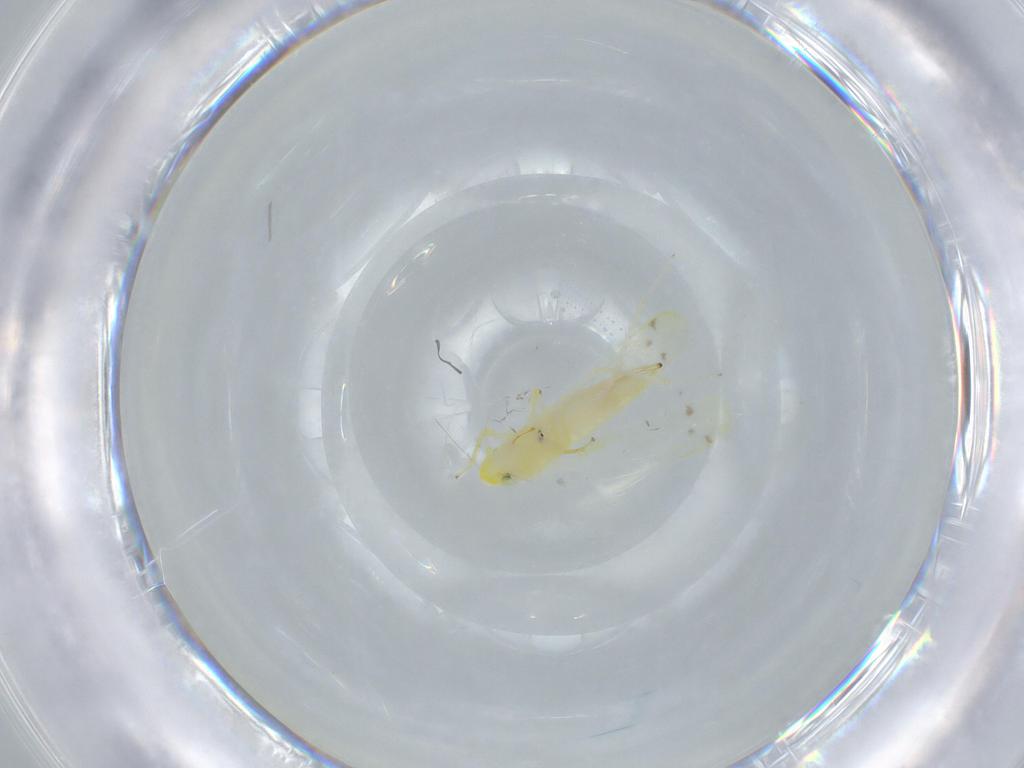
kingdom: Animalia
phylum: Arthropoda
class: Insecta
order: Hemiptera
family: Cicadellidae
